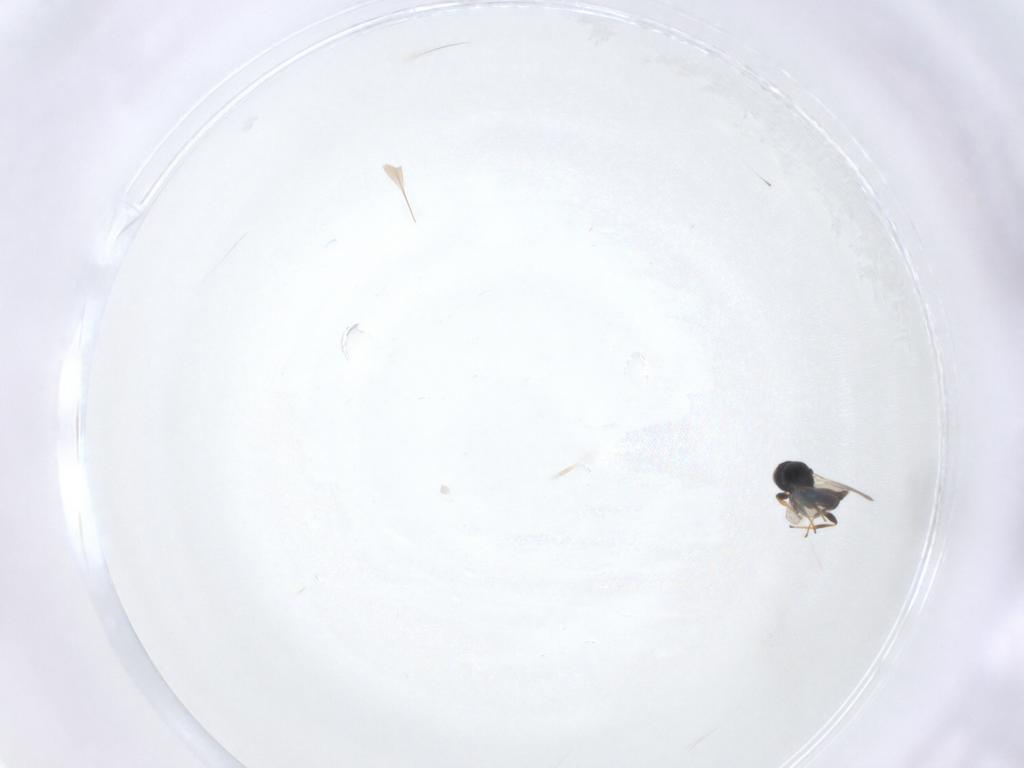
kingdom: Animalia
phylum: Arthropoda
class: Insecta
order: Hymenoptera
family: Platygastridae
